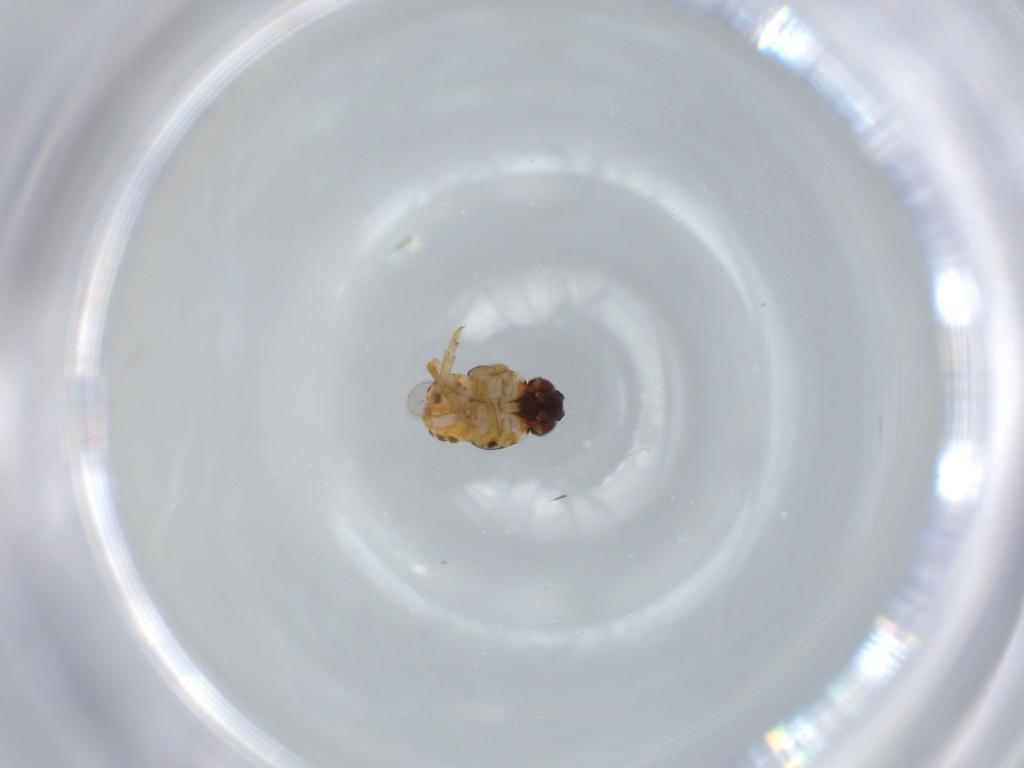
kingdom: Animalia
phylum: Arthropoda
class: Insecta
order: Hemiptera
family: Issidae
